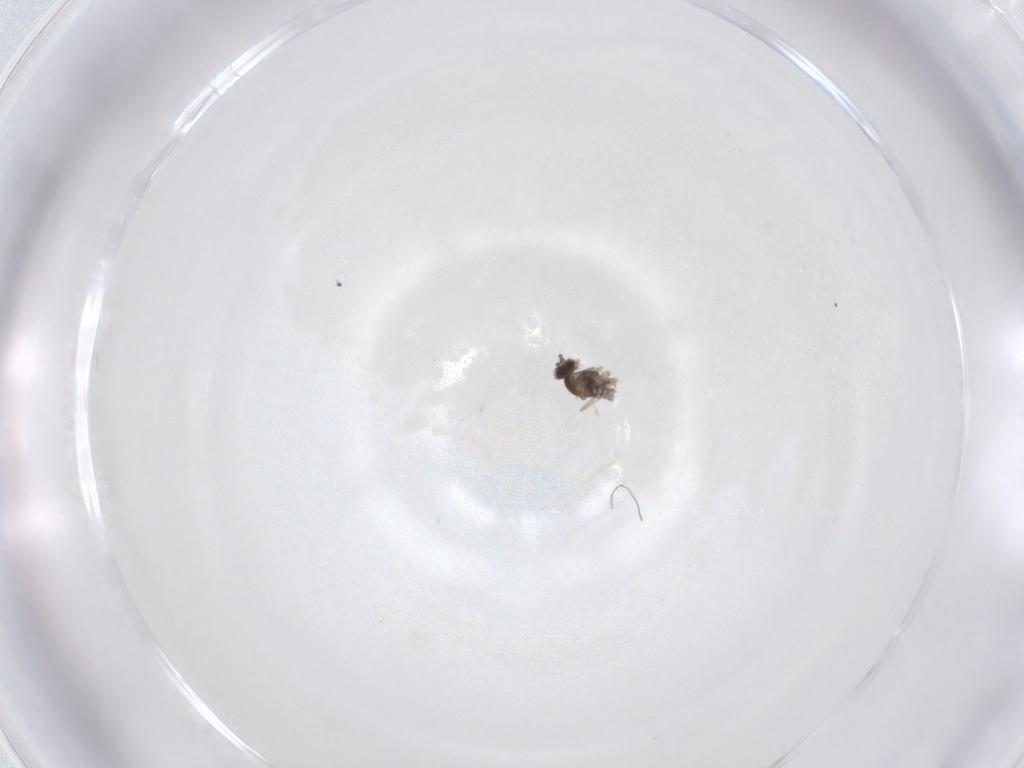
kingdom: Animalia
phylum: Arthropoda
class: Insecta
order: Diptera
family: Cecidomyiidae
